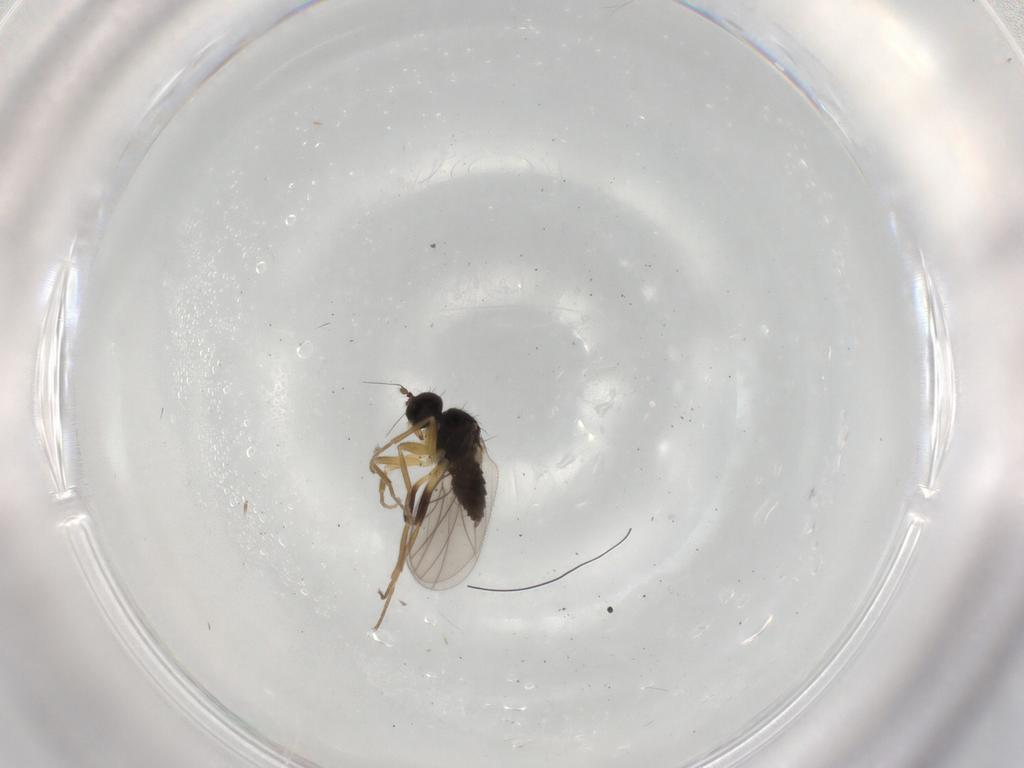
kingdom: Animalia
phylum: Arthropoda
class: Insecta
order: Diptera
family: Hybotidae
